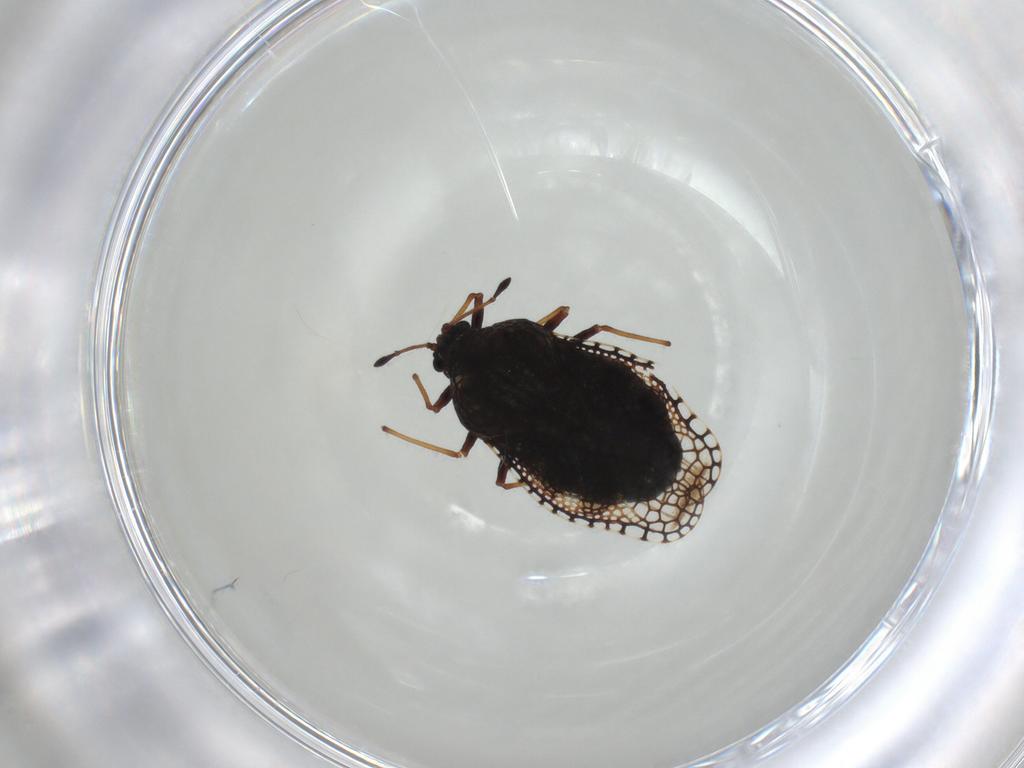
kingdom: Animalia
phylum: Arthropoda
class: Insecta
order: Hemiptera
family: Tingidae
